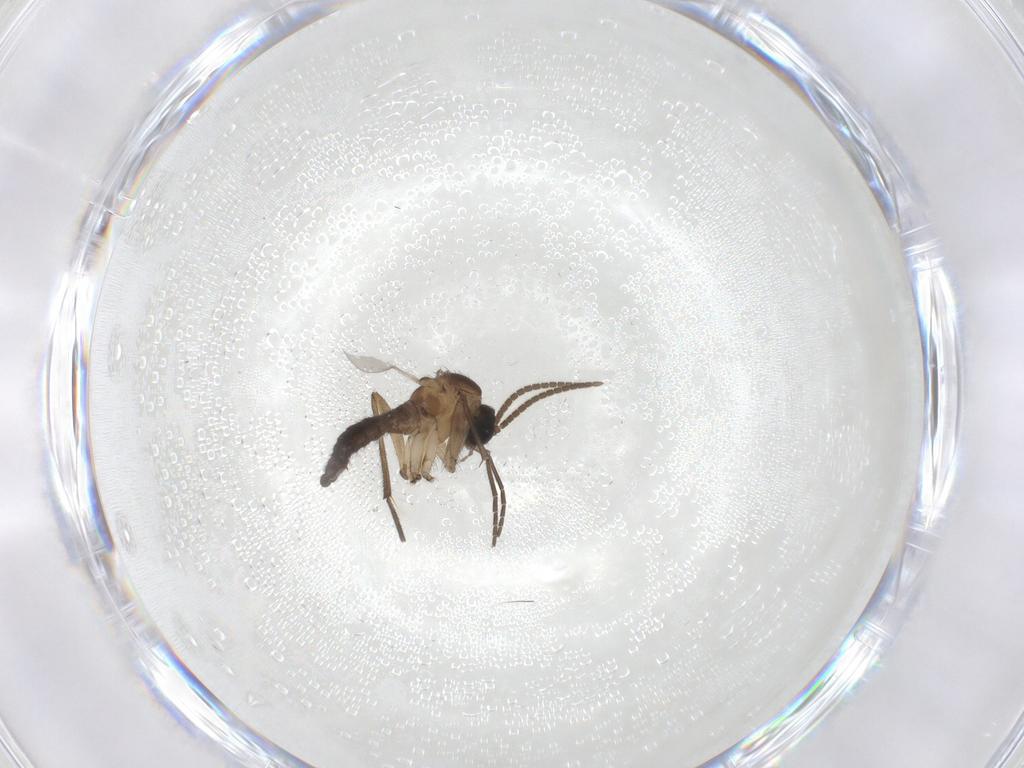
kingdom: Animalia
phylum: Arthropoda
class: Insecta
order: Diptera
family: Sciaridae
